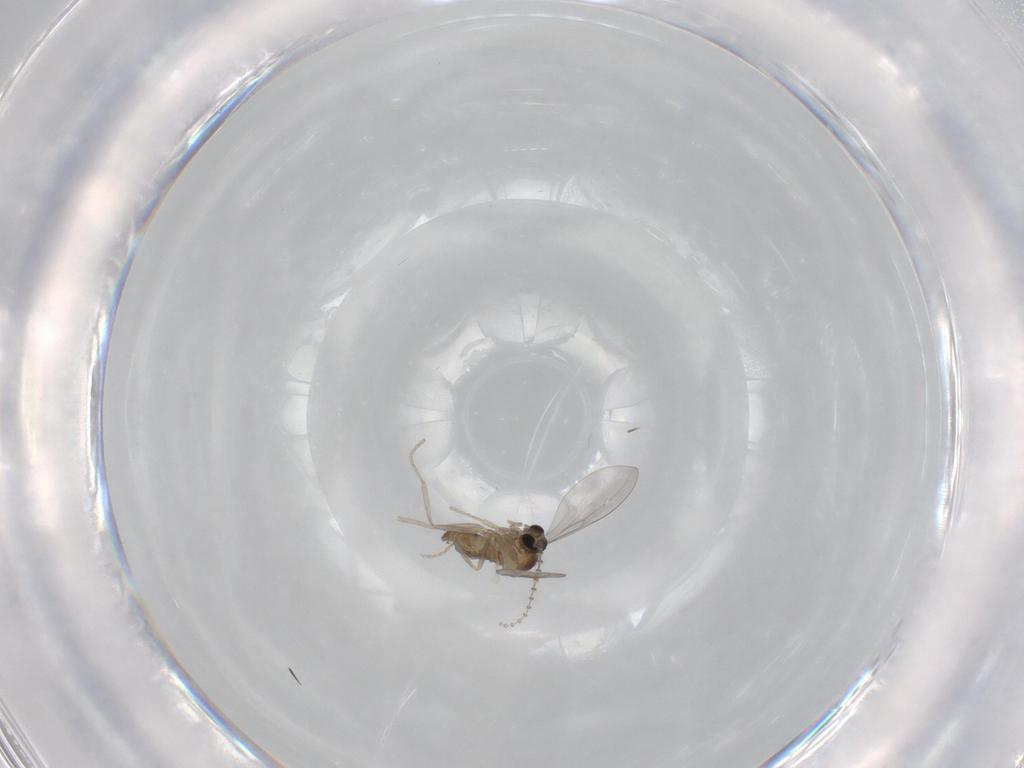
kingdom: Animalia
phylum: Arthropoda
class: Insecta
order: Diptera
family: Cecidomyiidae
